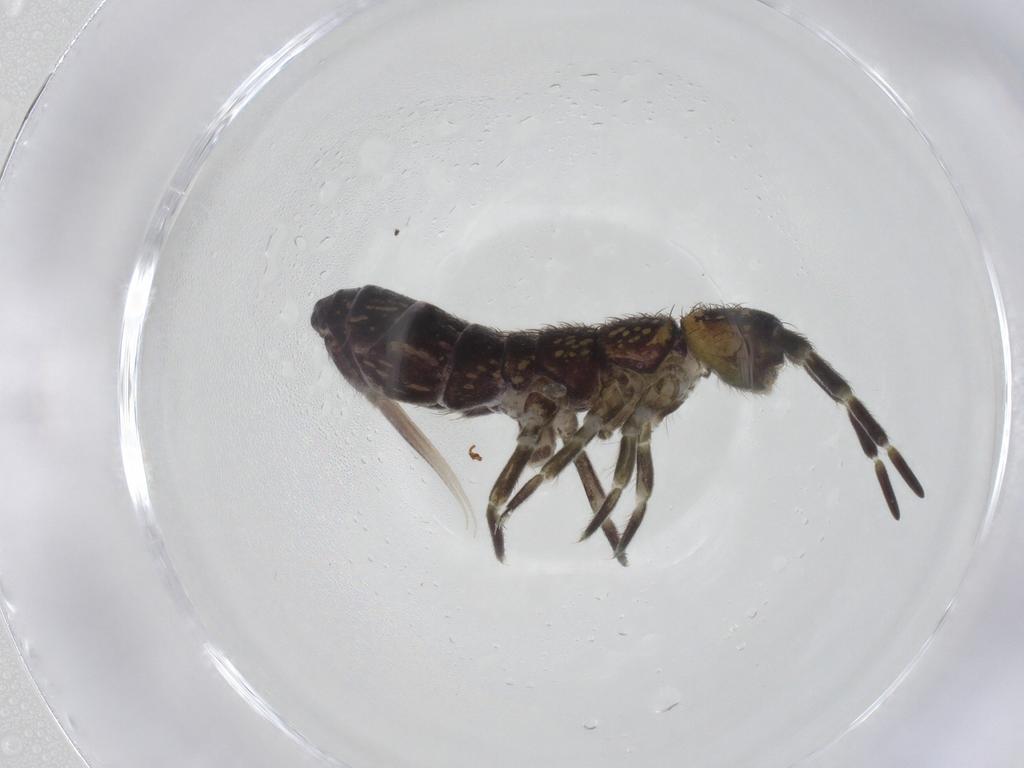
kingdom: Animalia
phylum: Arthropoda
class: Collembola
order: Entomobryomorpha
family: Isotomidae
